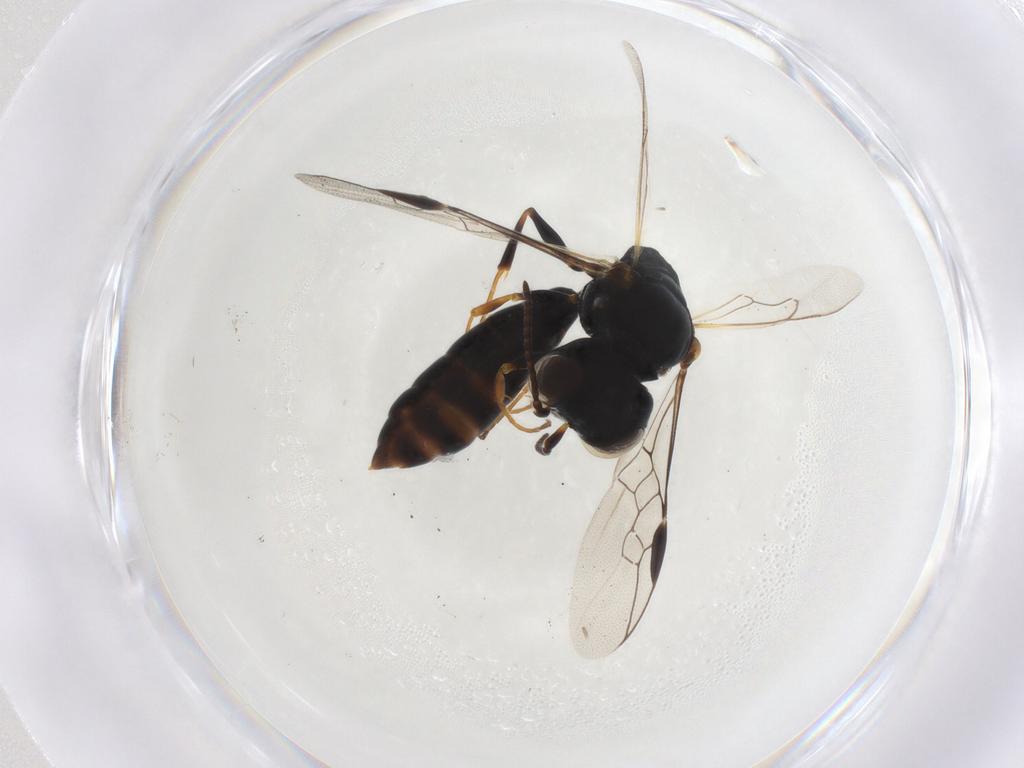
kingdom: Animalia
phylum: Arthropoda
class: Insecta
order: Hymenoptera
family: Crabronidae
